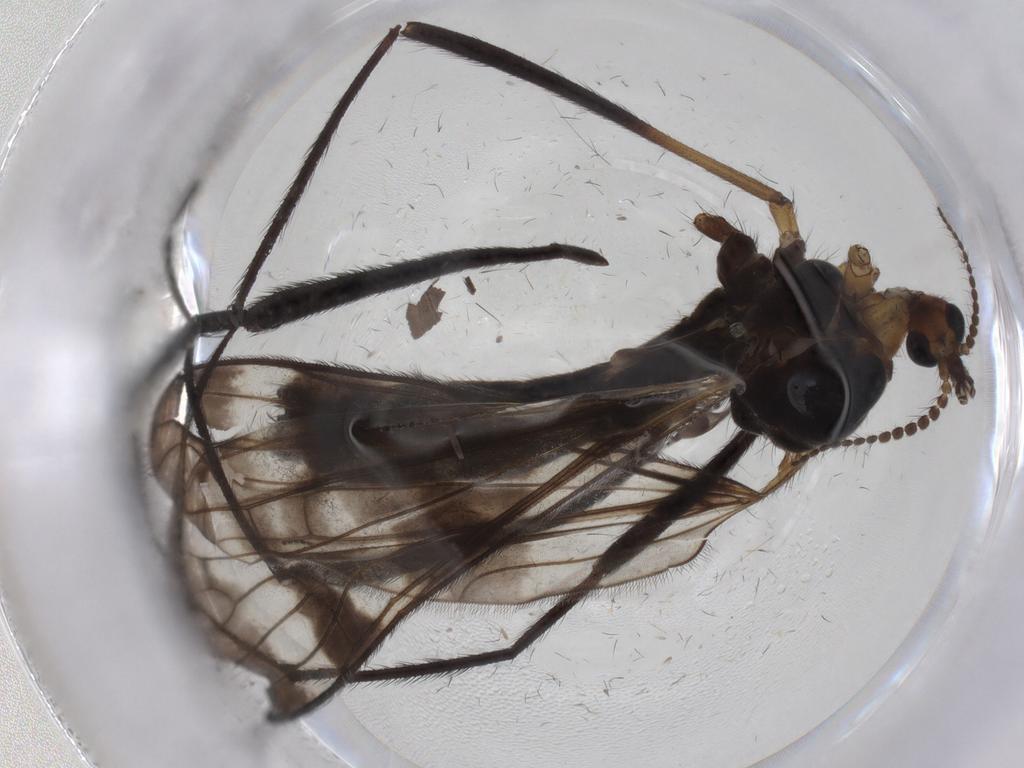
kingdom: Animalia
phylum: Arthropoda
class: Insecta
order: Diptera
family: Limoniidae
